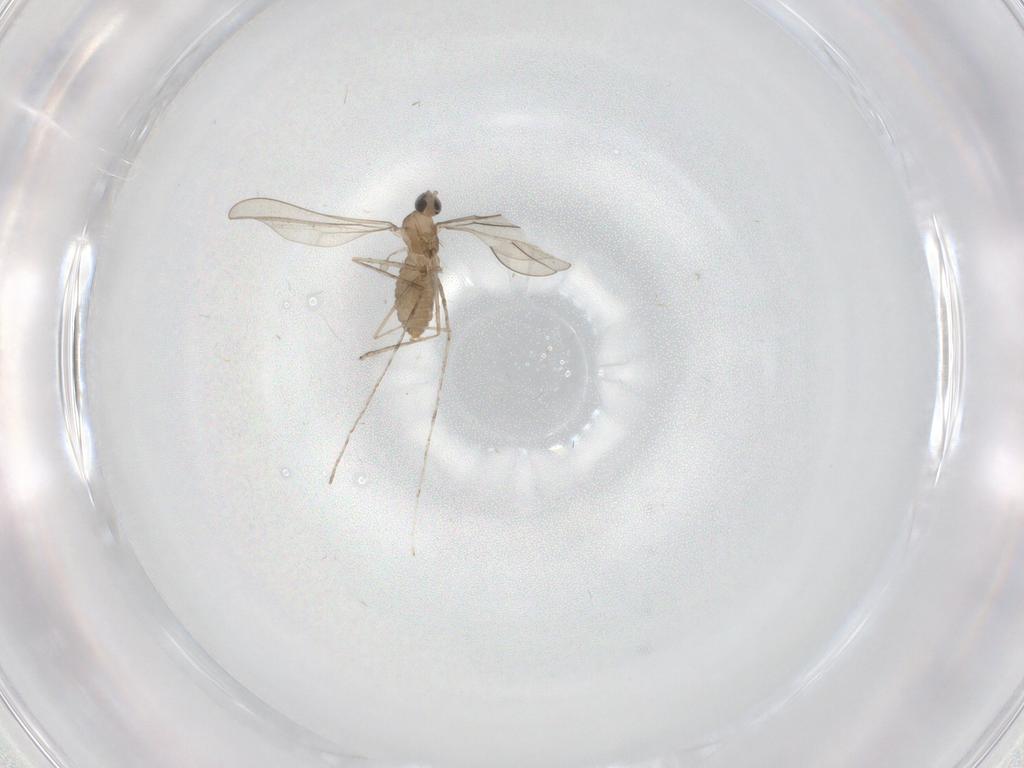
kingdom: Animalia
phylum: Arthropoda
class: Insecta
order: Diptera
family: Cecidomyiidae
